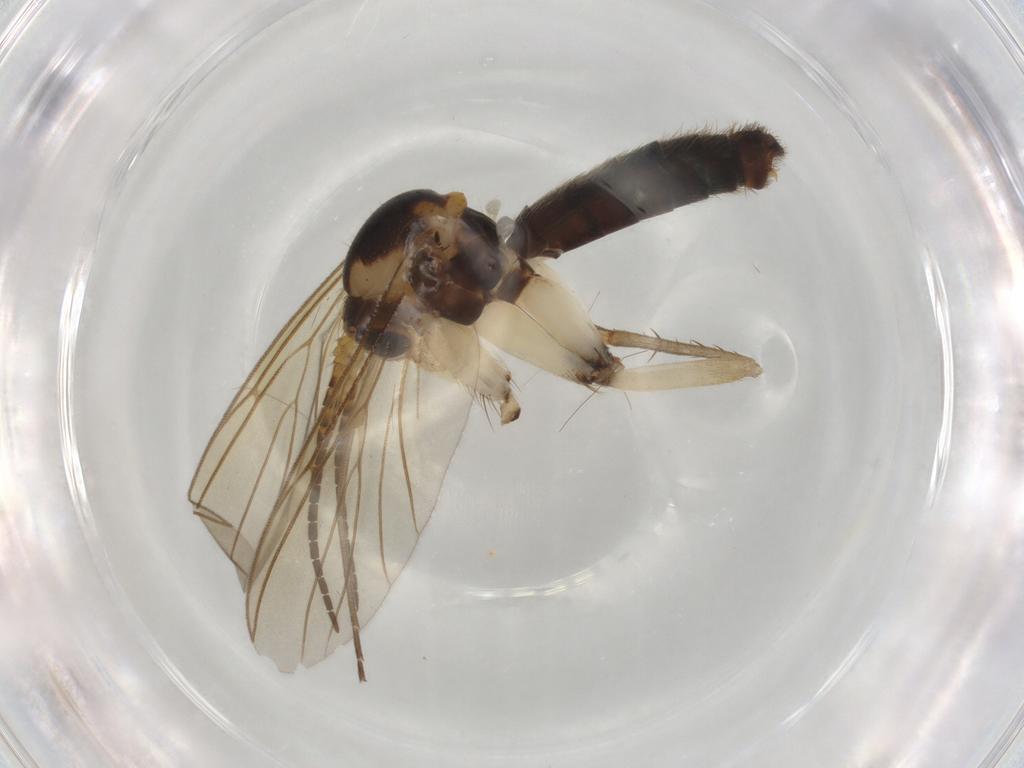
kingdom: Animalia
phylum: Arthropoda
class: Insecta
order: Diptera
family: Cecidomyiidae
